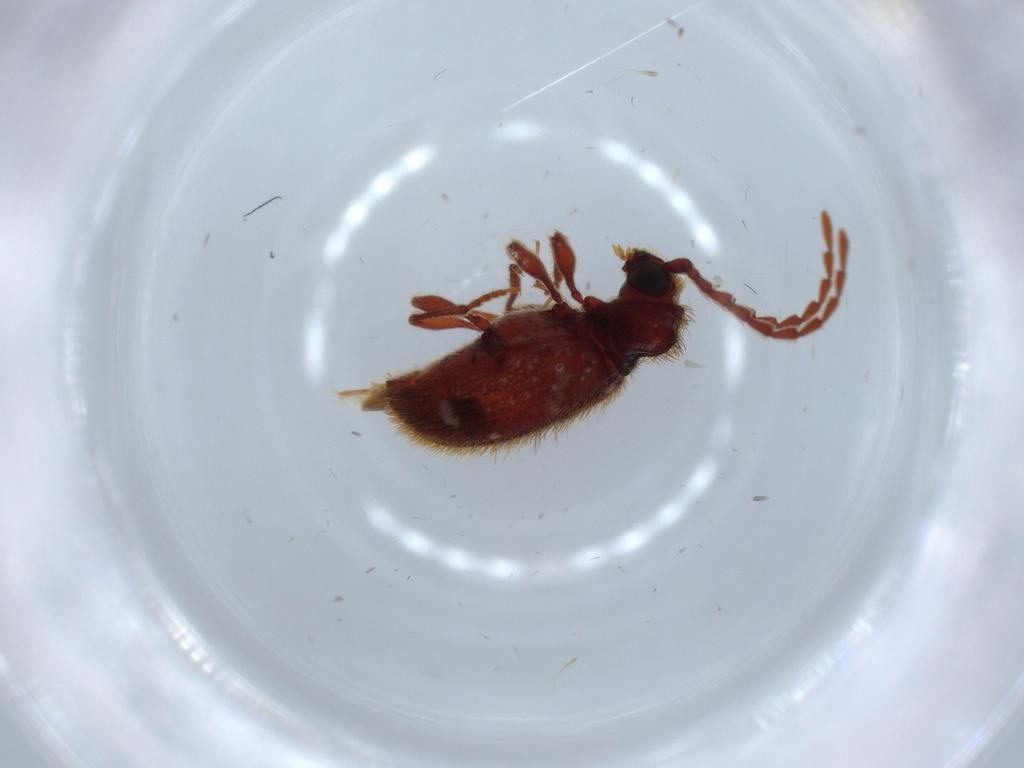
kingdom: Animalia
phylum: Arthropoda
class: Insecta
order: Coleoptera
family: Ptinidae
